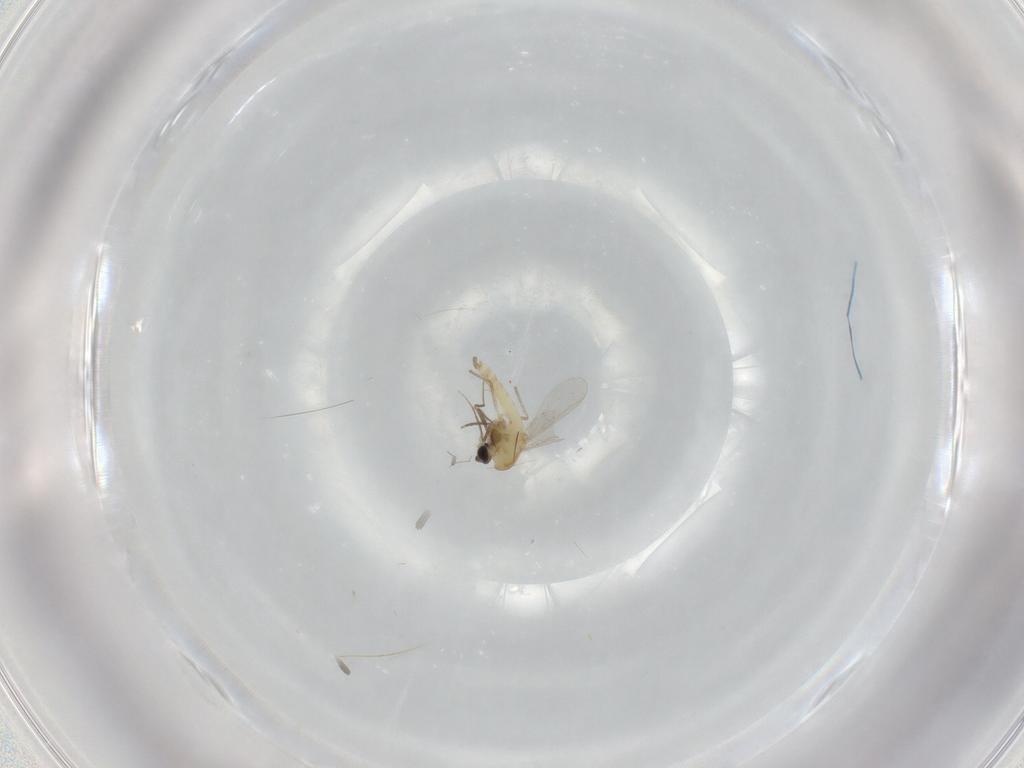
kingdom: Animalia
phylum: Arthropoda
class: Insecta
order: Diptera
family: Chironomidae
